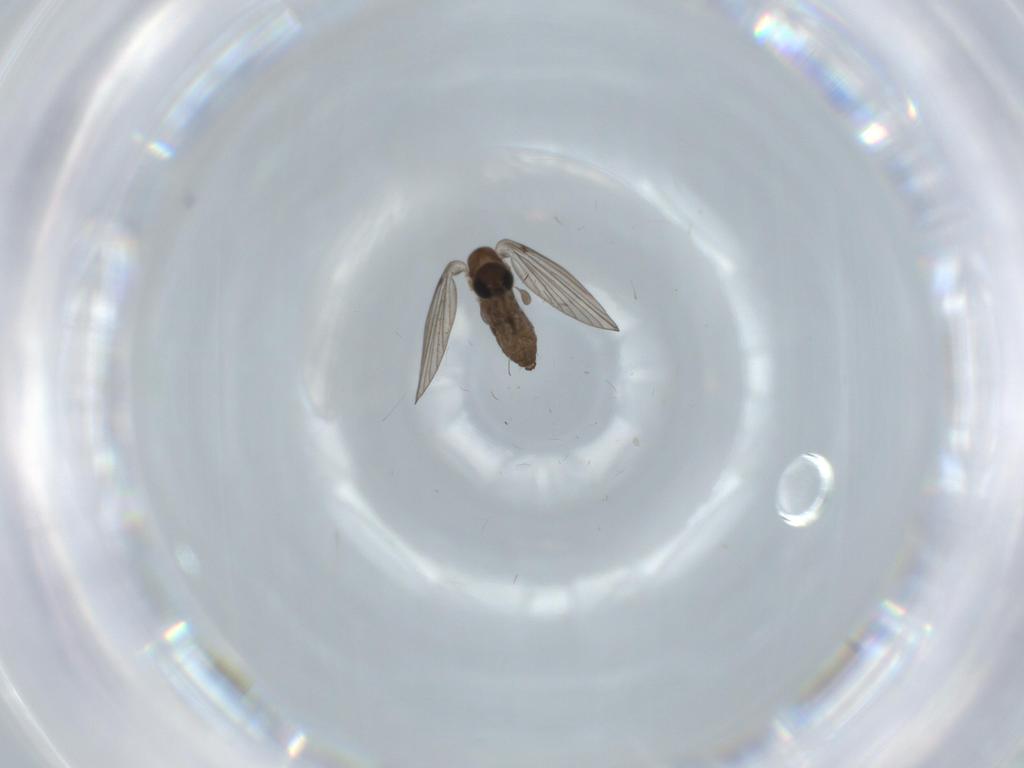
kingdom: Animalia
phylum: Arthropoda
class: Insecta
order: Diptera
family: Psychodidae
